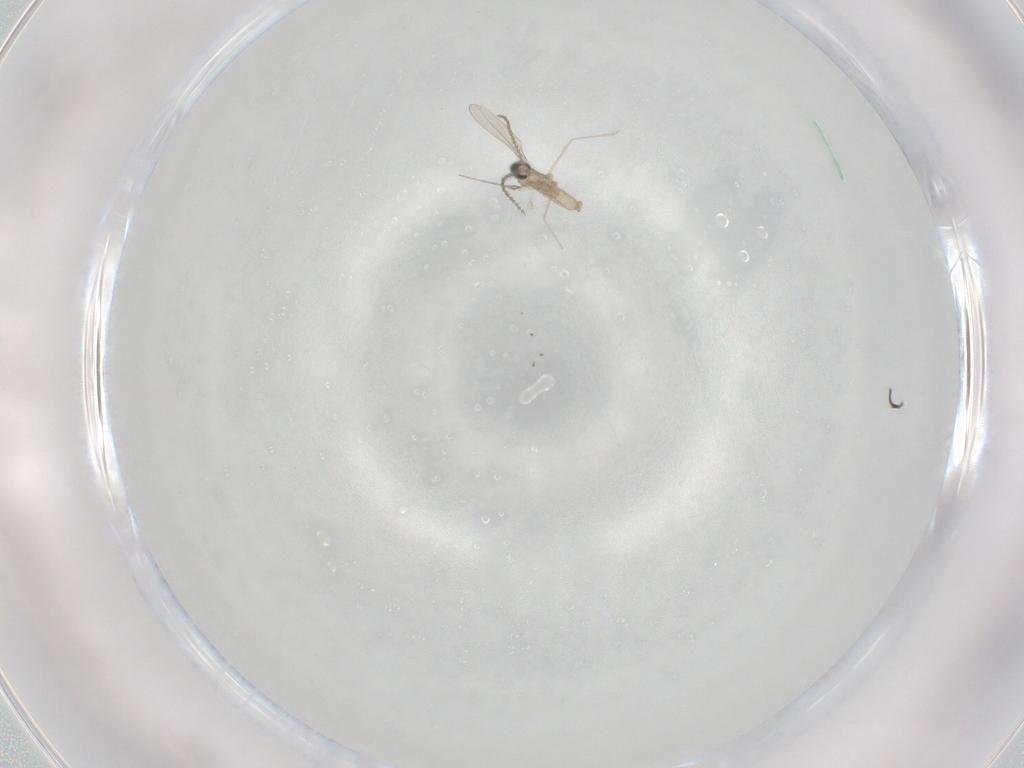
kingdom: Animalia
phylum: Arthropoda
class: Insecta
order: Diptera
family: Cecidomyiidae
